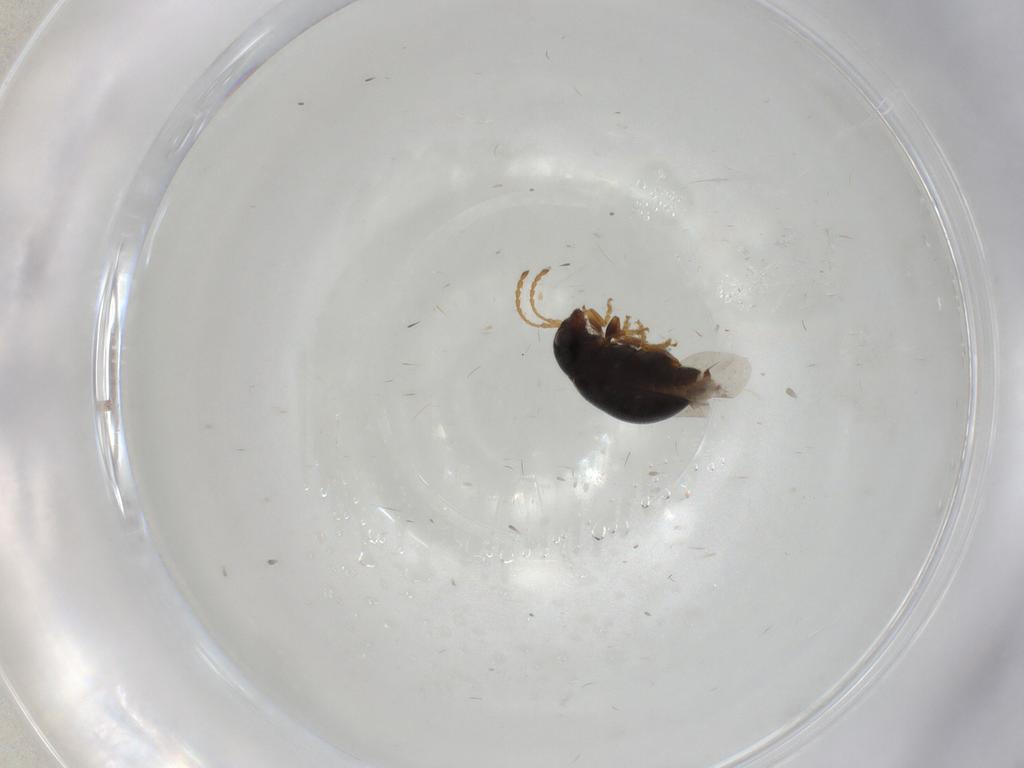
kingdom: Animalia
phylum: Arthropoda
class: Insecta
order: Coleoptera
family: Chrysomelidae
